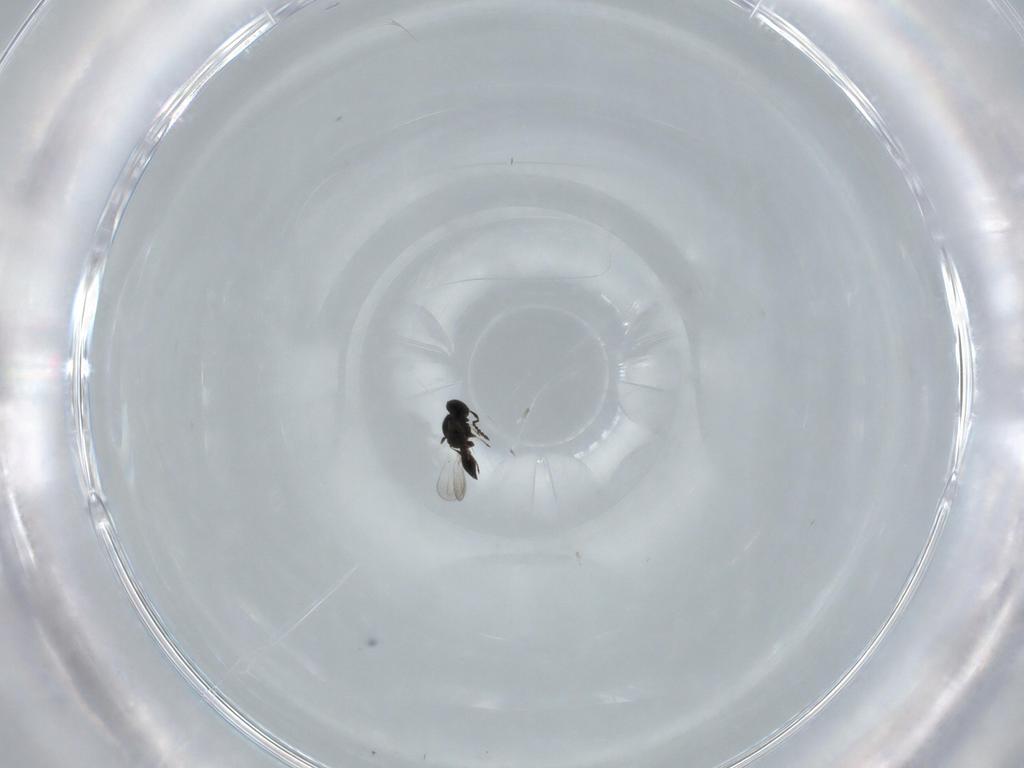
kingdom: Animalia
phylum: Arthropoda
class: Insecta
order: Hymenoptera
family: Platygastridae
